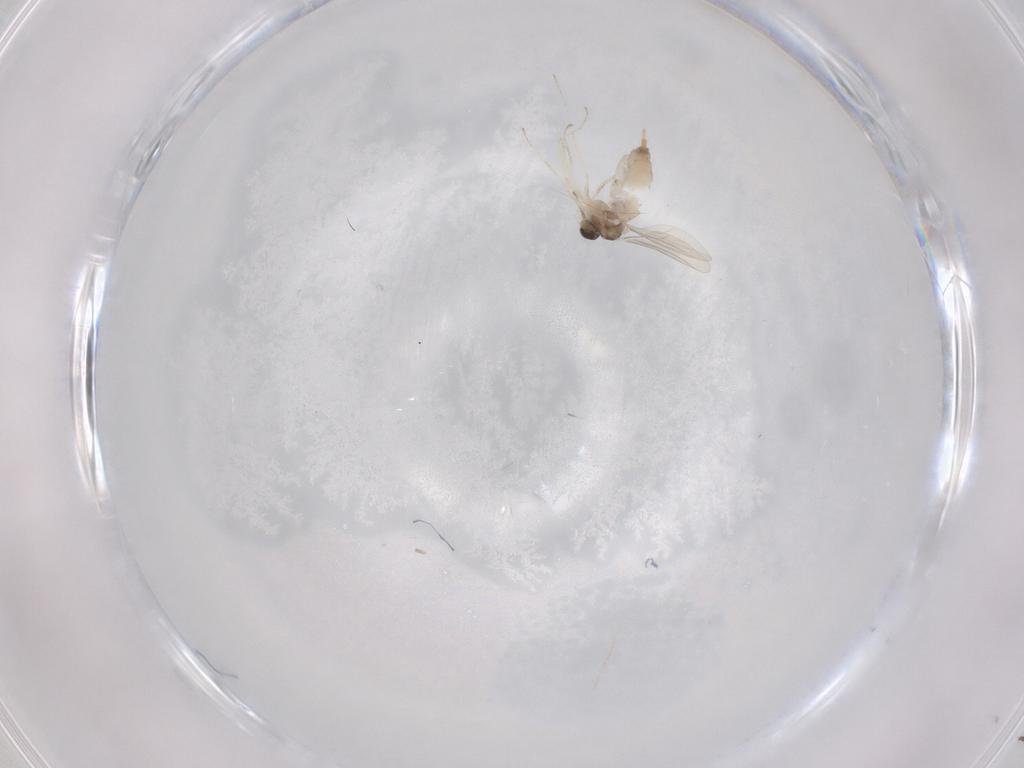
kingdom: Animalia
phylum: Arthropoda
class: Insecta
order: Diptera
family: Cecidomyiidae
